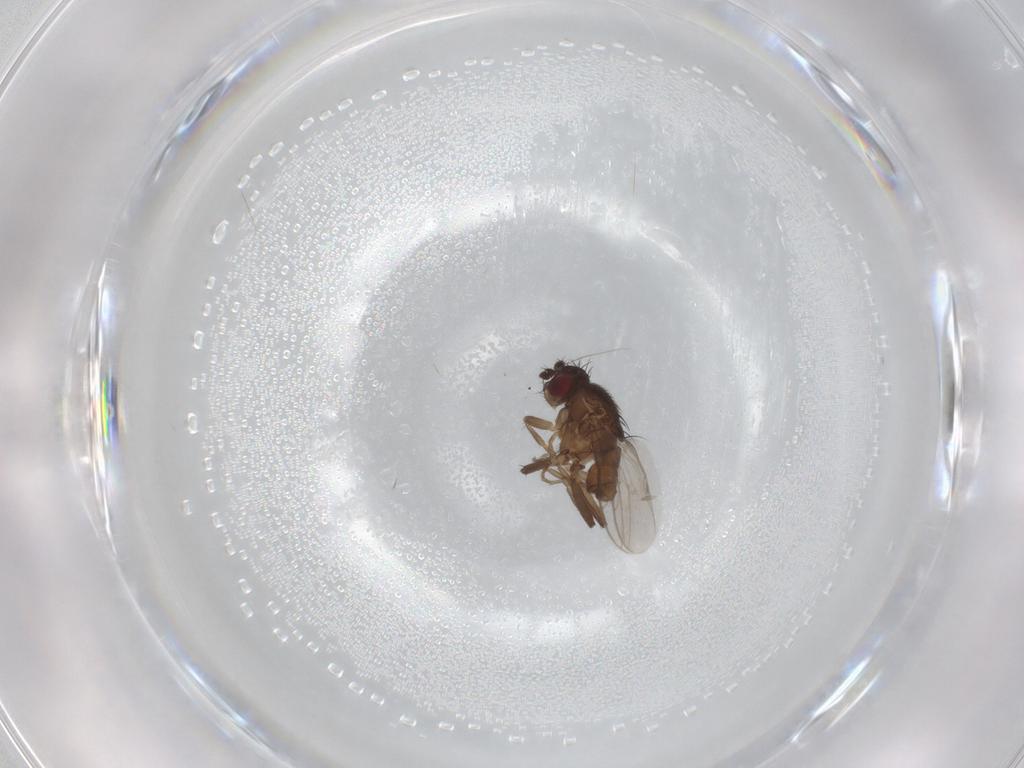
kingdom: Animalia
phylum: Arthropoda
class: Insecta
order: Diptera
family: Sphaeroceridae
